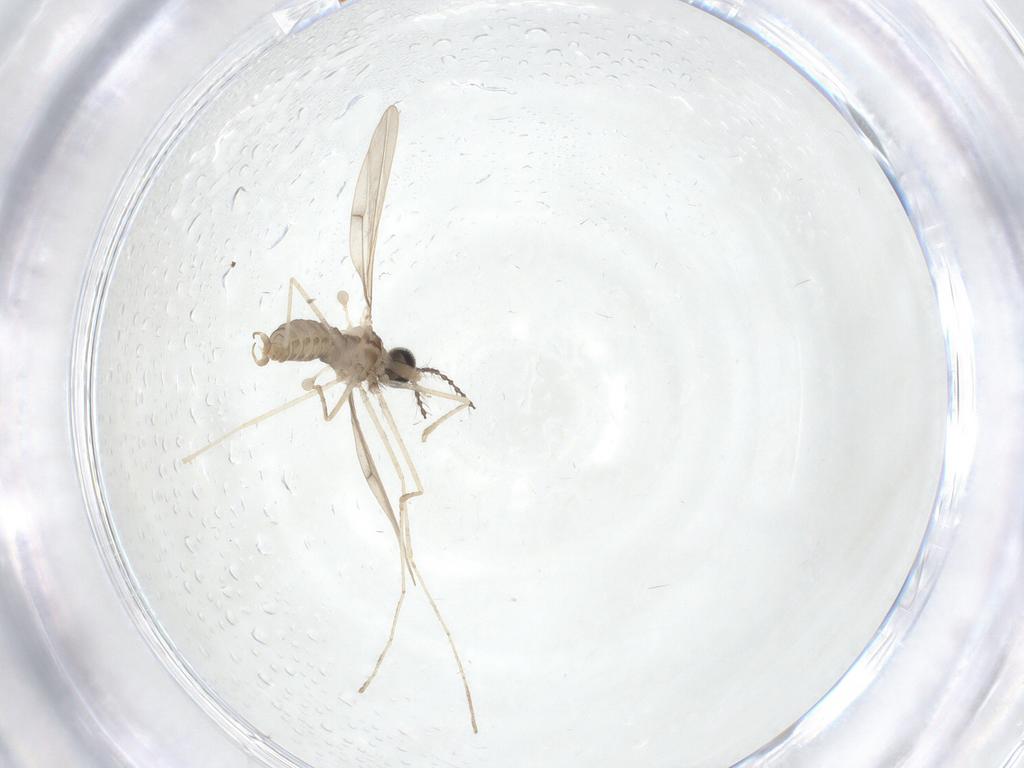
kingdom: Animalia
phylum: Arthropoda
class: Insecta
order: Diptera
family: Cecidomyiidae
